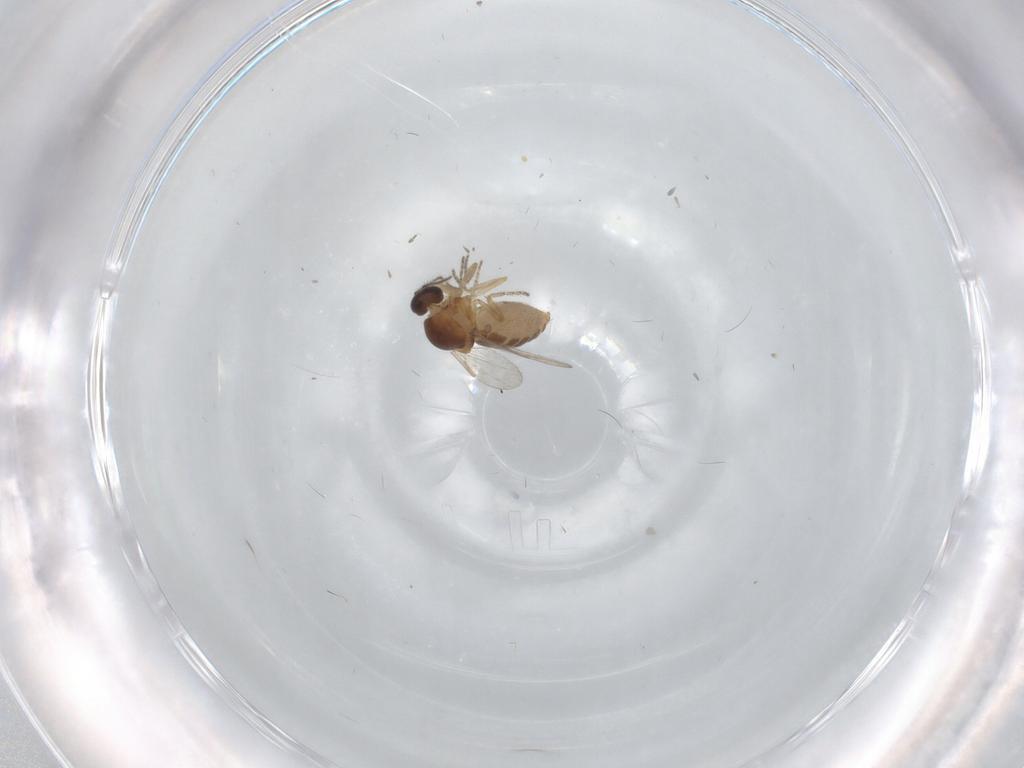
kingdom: Animalia
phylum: Arthropoda
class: Insecta
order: Diptera
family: Ceratopogonidae
